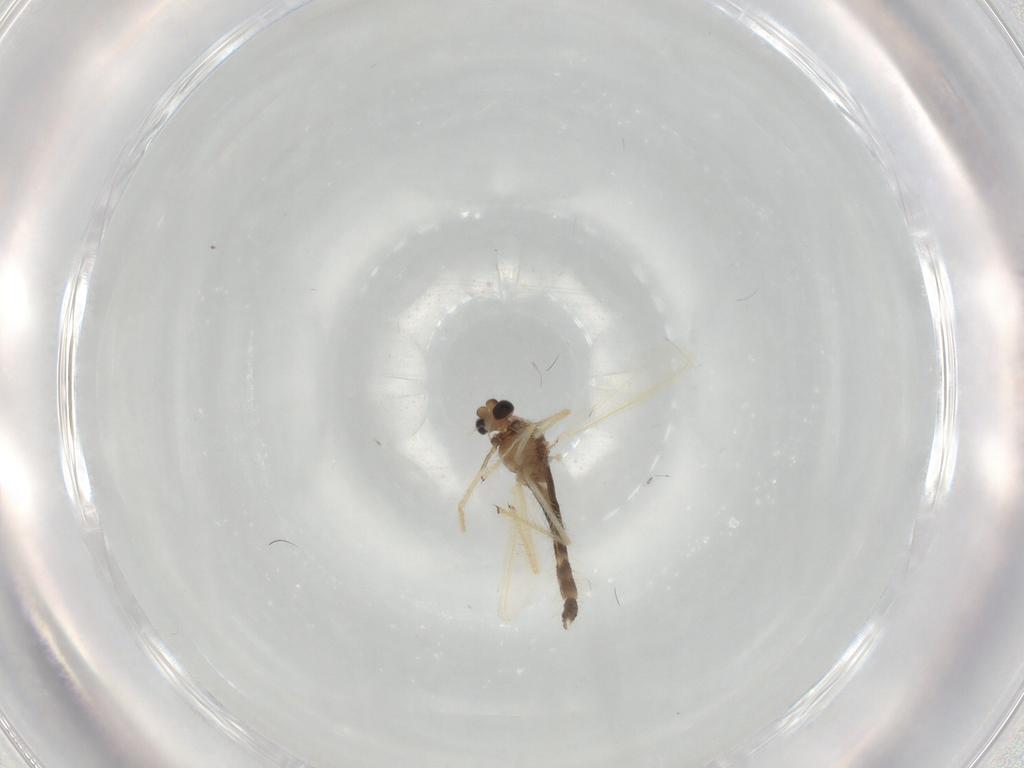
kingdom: Animalia
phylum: Arthropoda
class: Insecta
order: Diptera
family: Chironomidae
